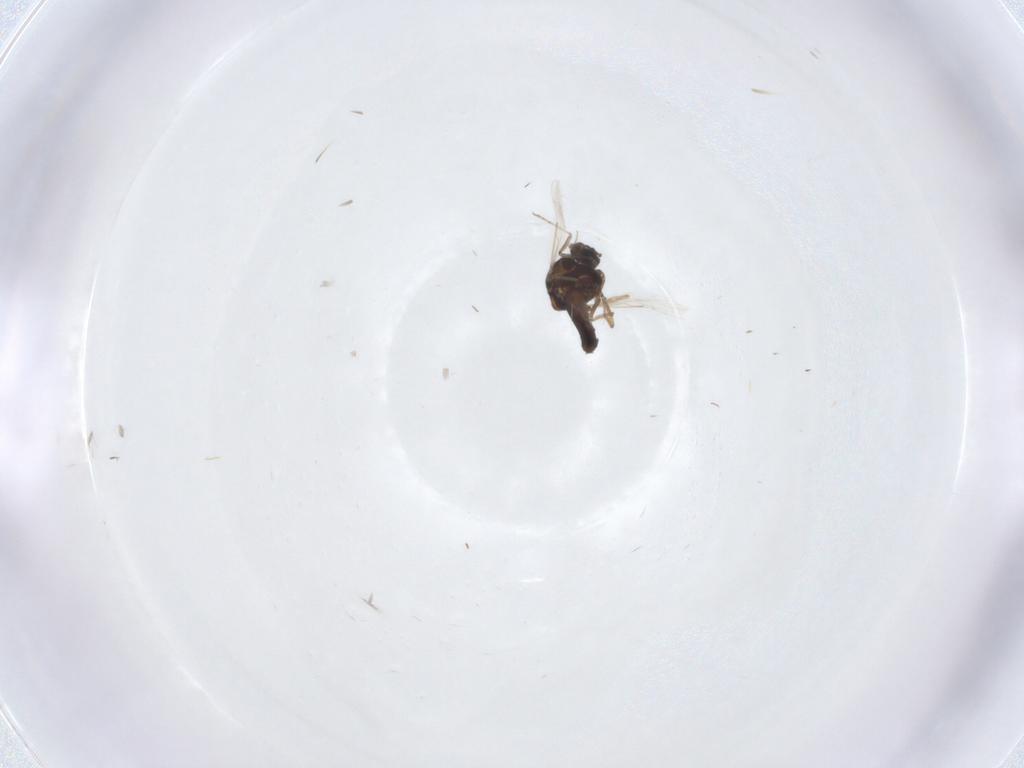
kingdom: Animalia
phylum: Arthropoda
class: Insecta
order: Diptera
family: Ceratopogonidae
